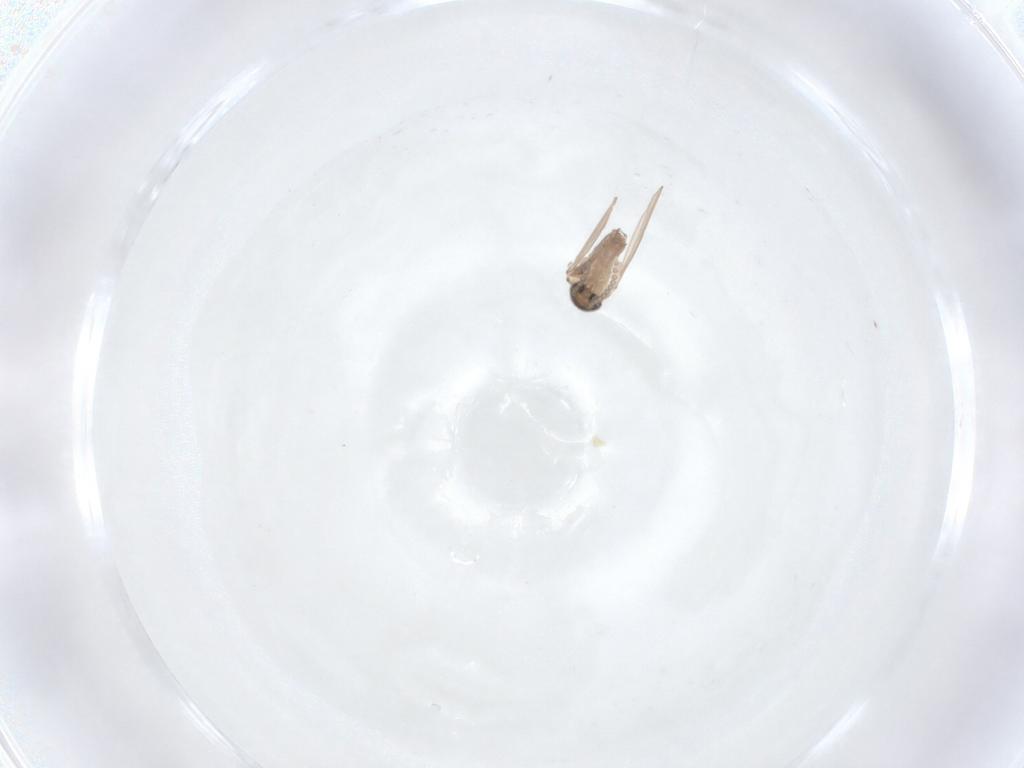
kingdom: Animalia
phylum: Arthropoda
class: Insecta
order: Diptera
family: Psychodidae
